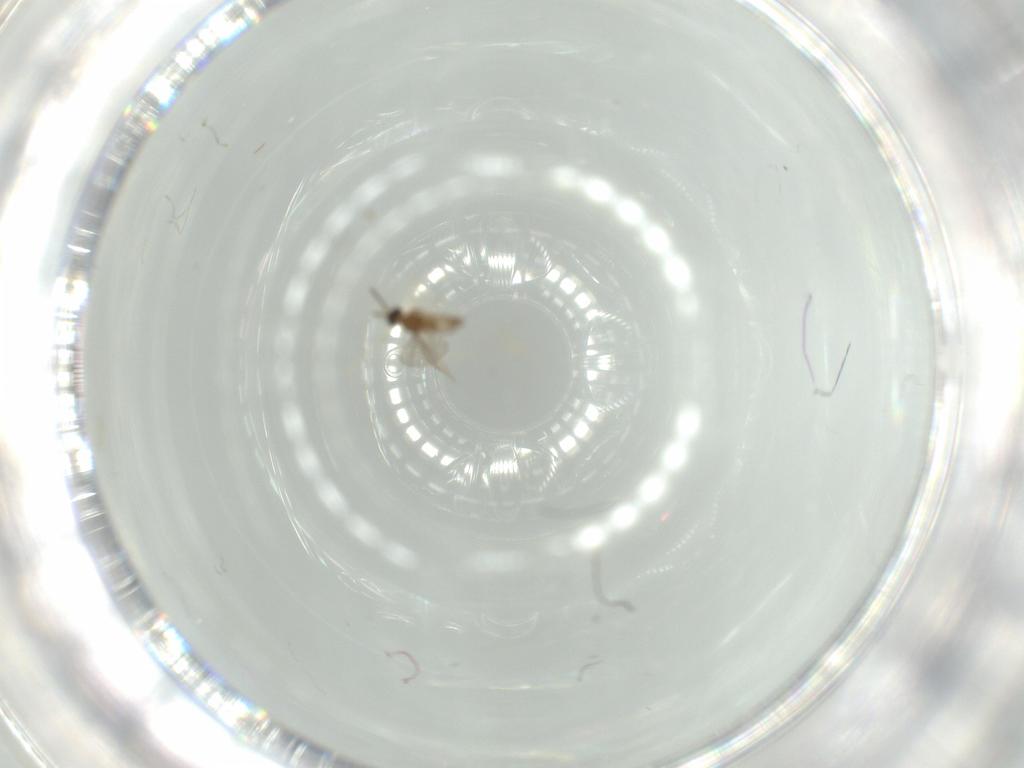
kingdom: Animalia
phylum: Arthropoda
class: Insecta
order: Diptera
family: Cecidomyiidae
